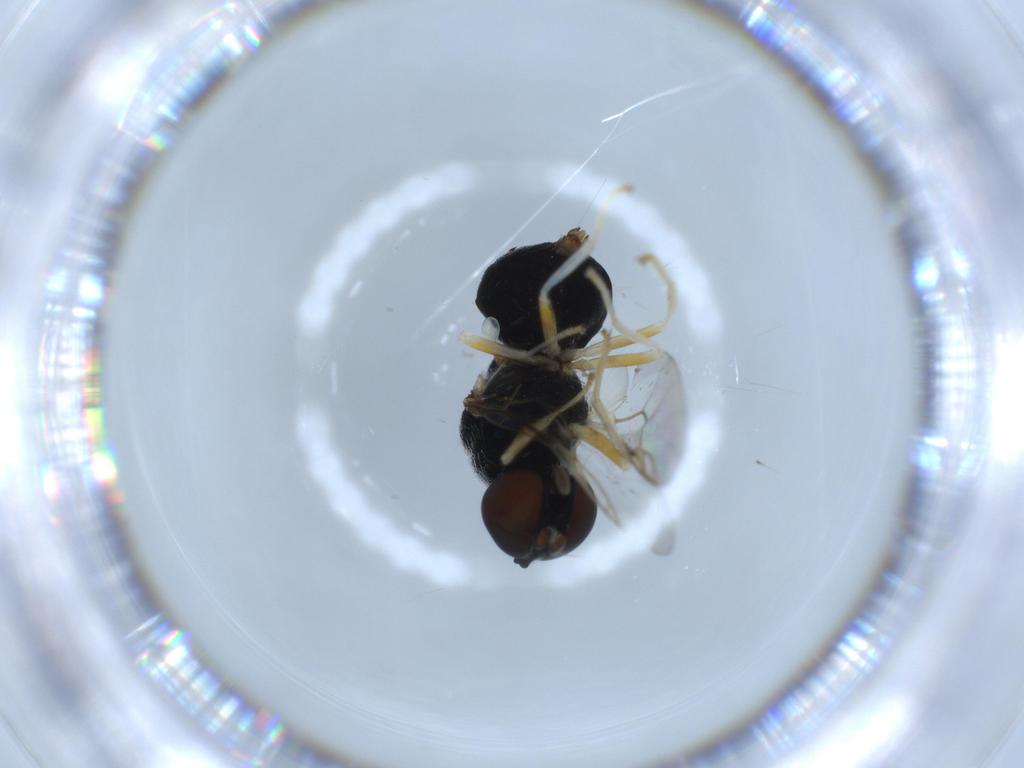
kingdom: Animalia
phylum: Arthropoda
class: Insecta
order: Diptera
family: Stratiomyidae
